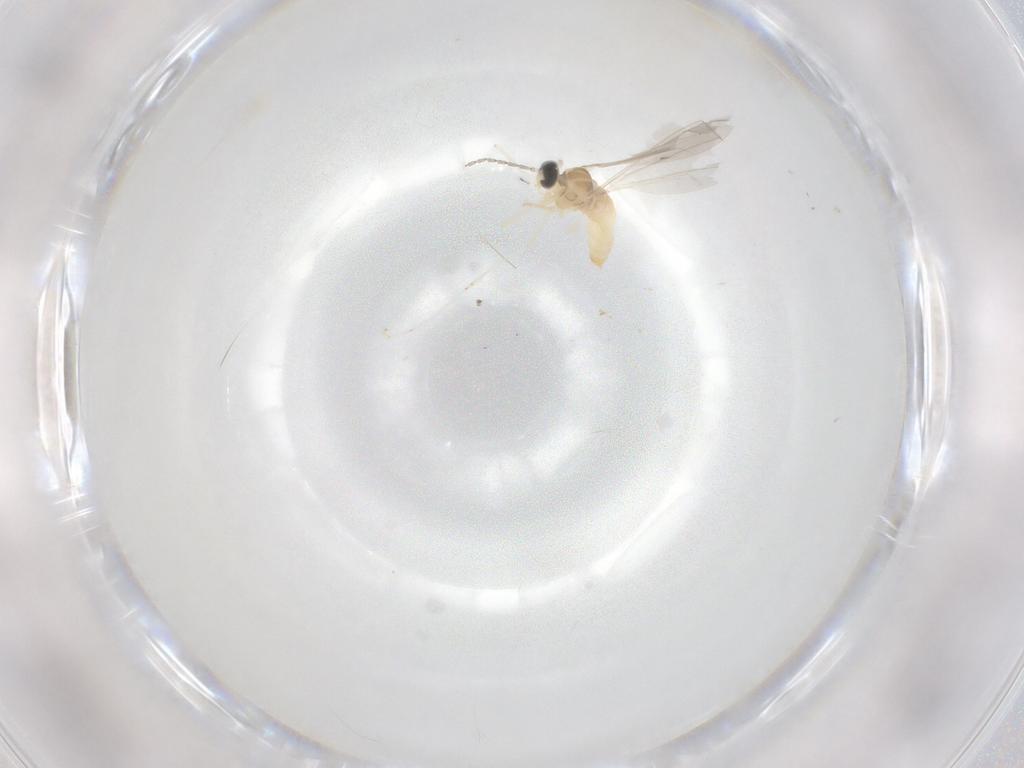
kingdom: Animalia
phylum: Arthropoda
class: Insecta
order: Diptera
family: Cecidomyiidae
